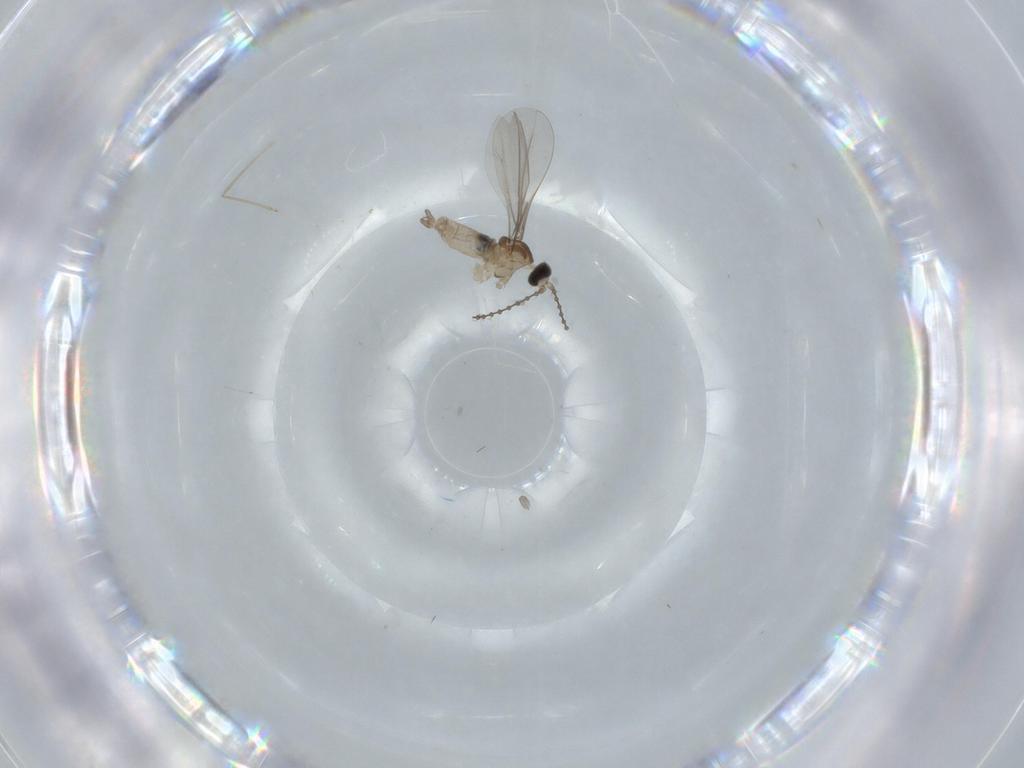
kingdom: Animalia
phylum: Arthropoda
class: Insecta
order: Diptera
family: Cecidomyiidae
